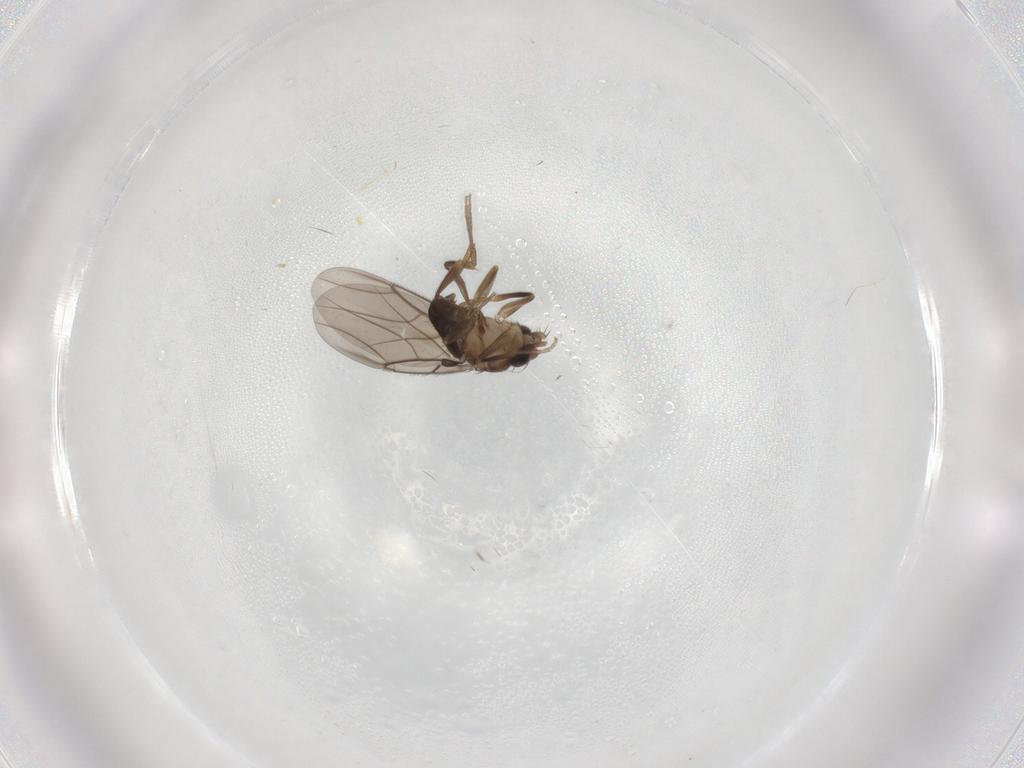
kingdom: Animalia
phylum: Arthropoda
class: Insecta
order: Diptera
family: Phoridae
